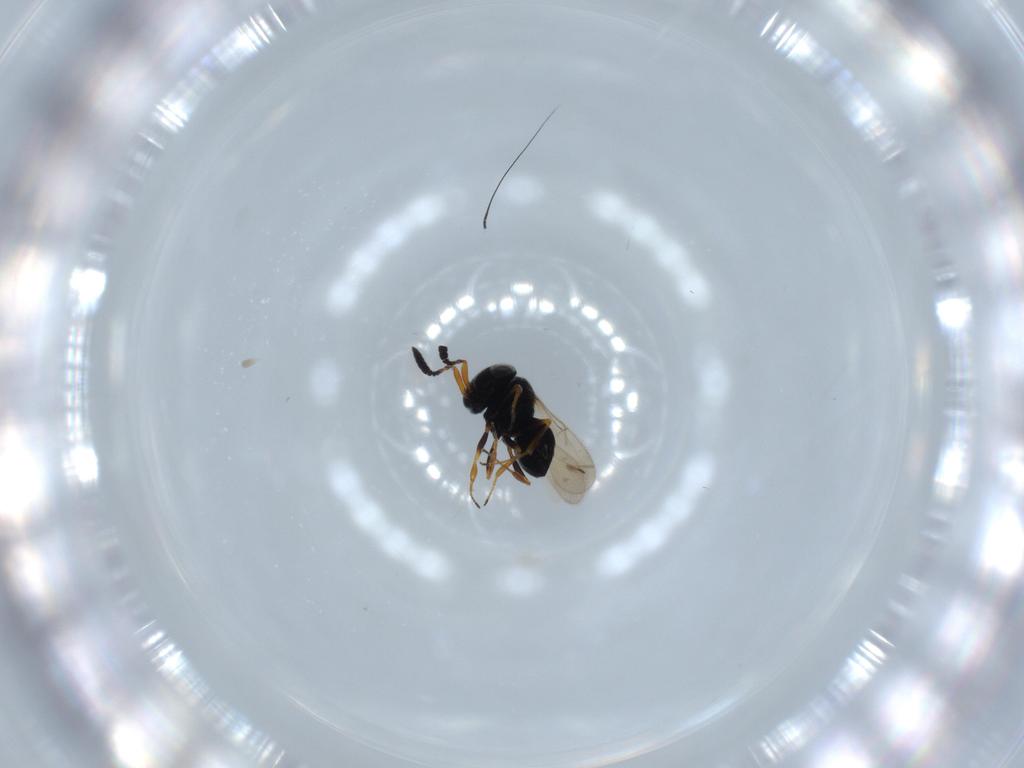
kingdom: Animalia
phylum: Arthropoda
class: Insecta
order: Hymenoptera
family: Scelionidae
